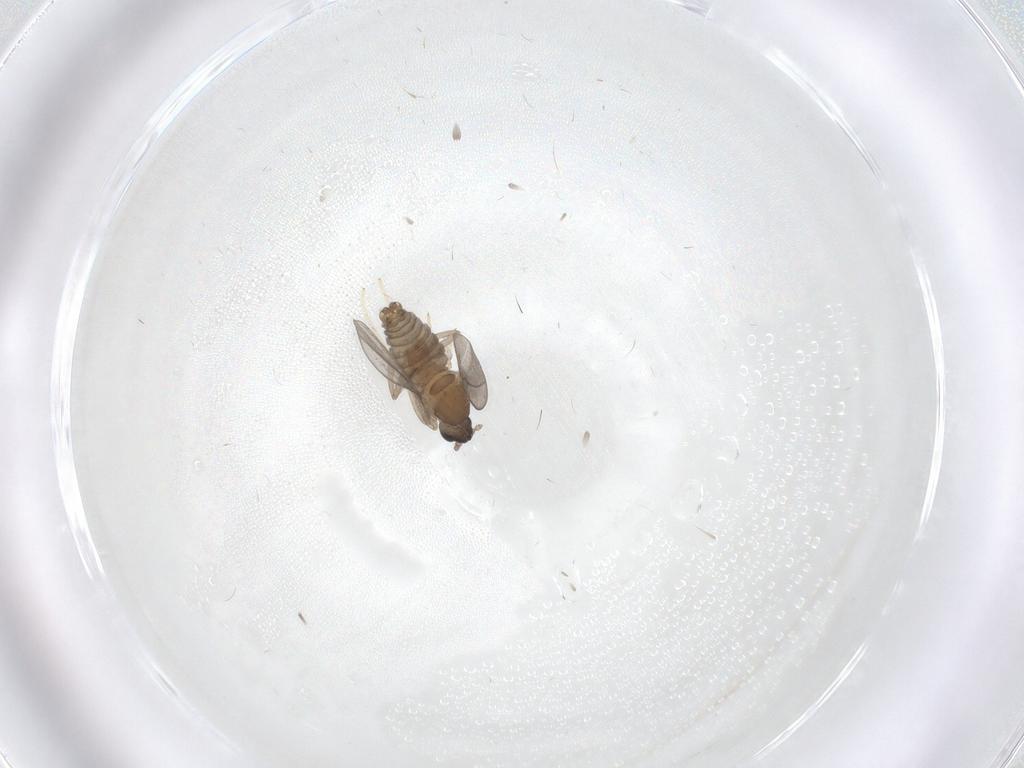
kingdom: Animalia
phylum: Arthropoda
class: Insecta
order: Diptera
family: Cecidomyiidae
